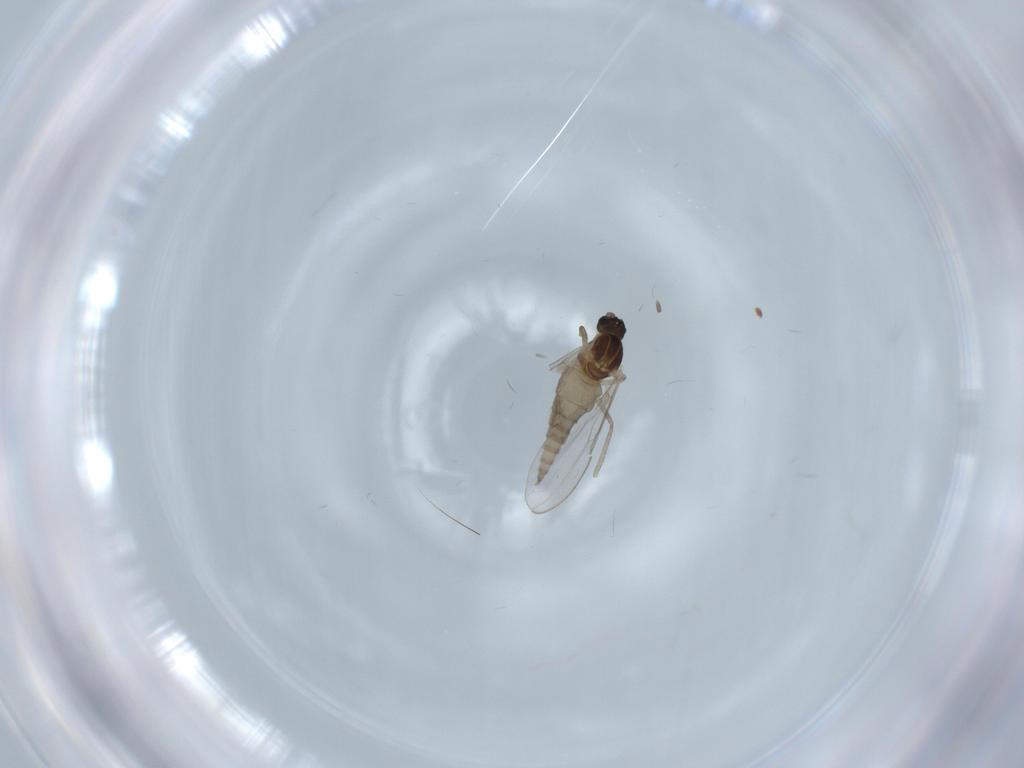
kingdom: Animalia
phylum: Arthropoda
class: Insecta
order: Diptera
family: Cecidomyiidae
